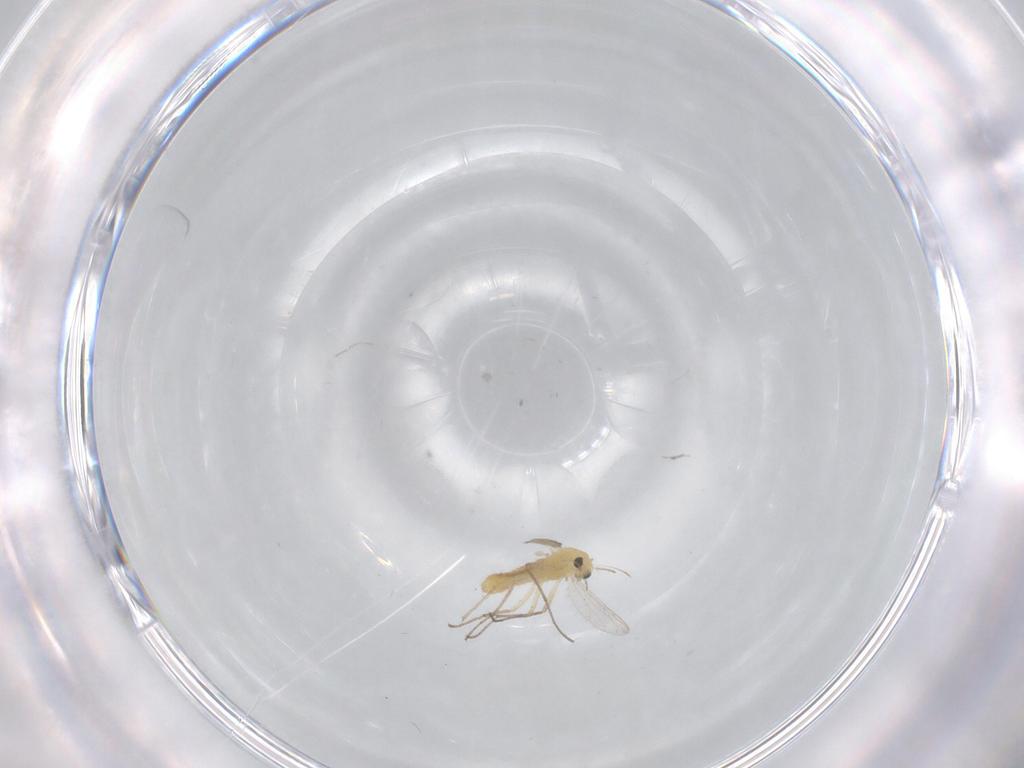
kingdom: Animalia
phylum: Arthropoda
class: Insecta
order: Diptera
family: Chironomidae
